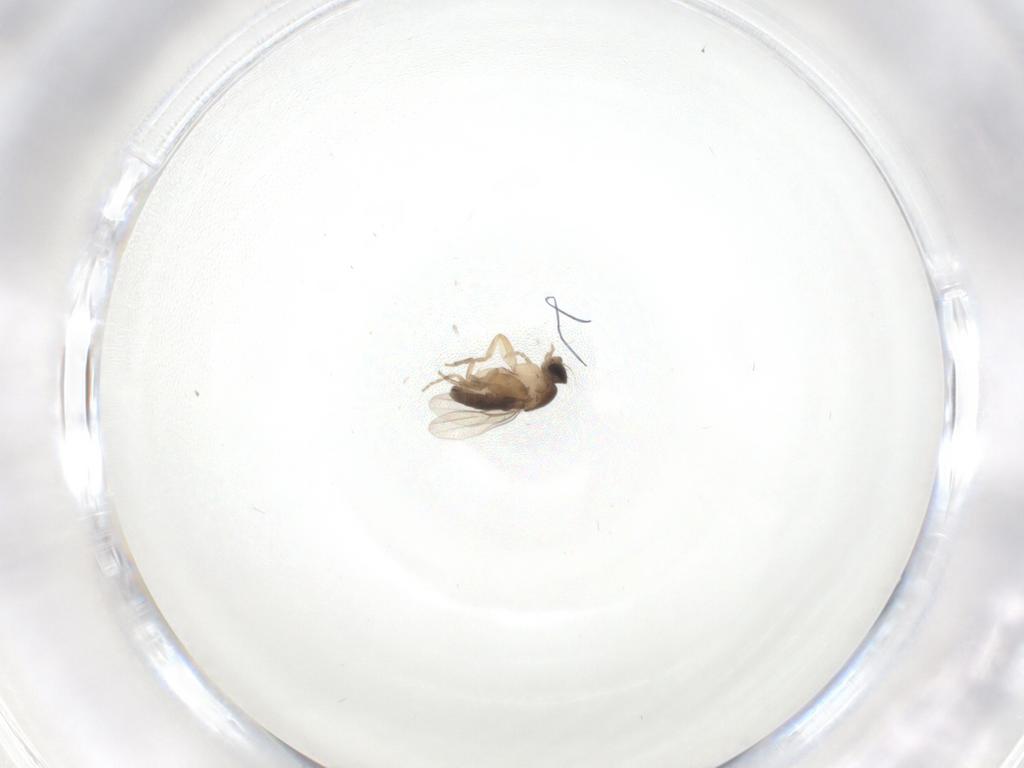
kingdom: Animalia
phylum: Arthropoda
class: Insecta
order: Diptera
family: Phoridae
